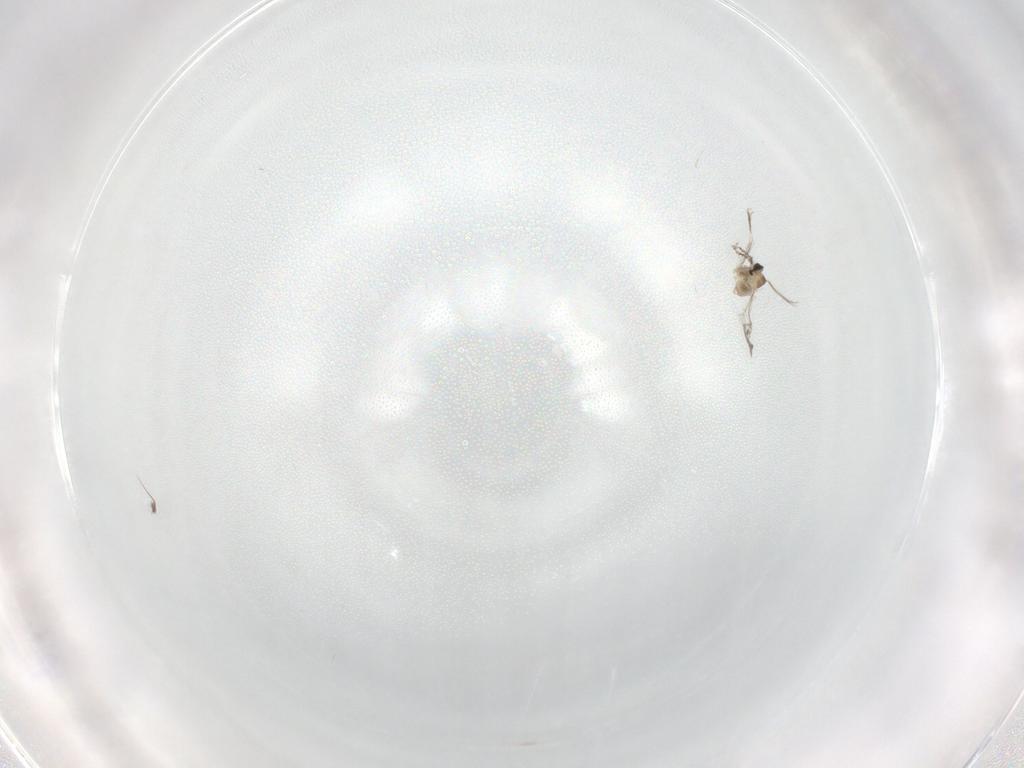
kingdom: Animalia
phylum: Arthropoda
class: Insecta
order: Diptera
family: Cecidomyiidae
